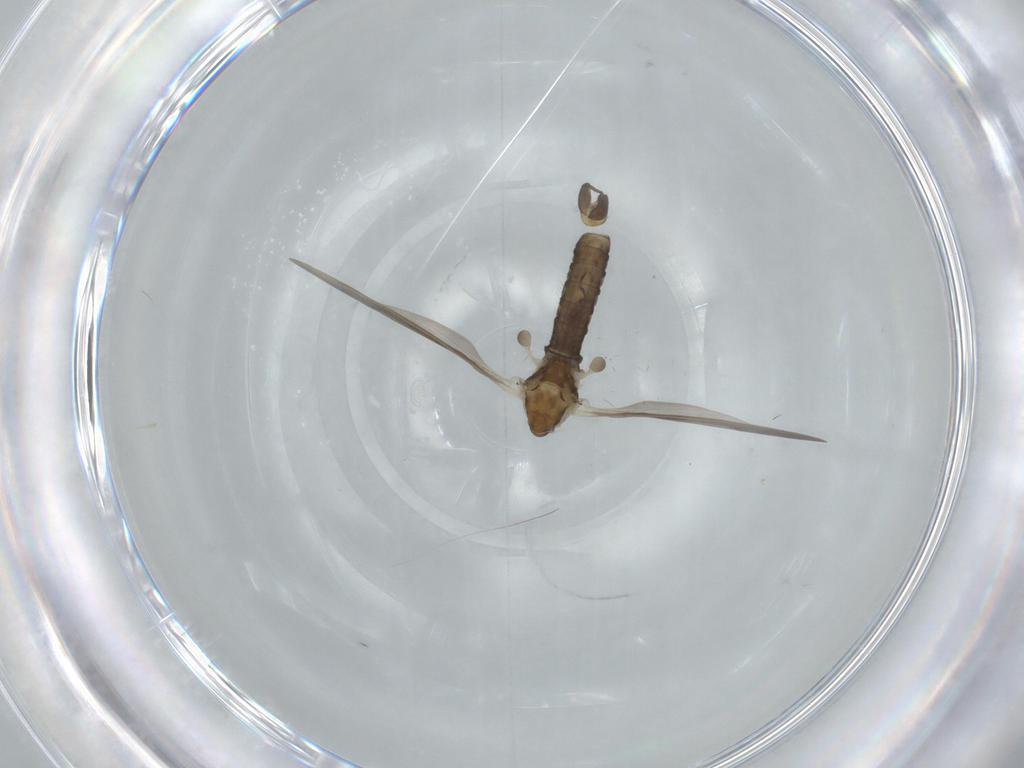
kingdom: Animalia
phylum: Arthropoda
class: Insecta
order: Diptera
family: Limoniidae
